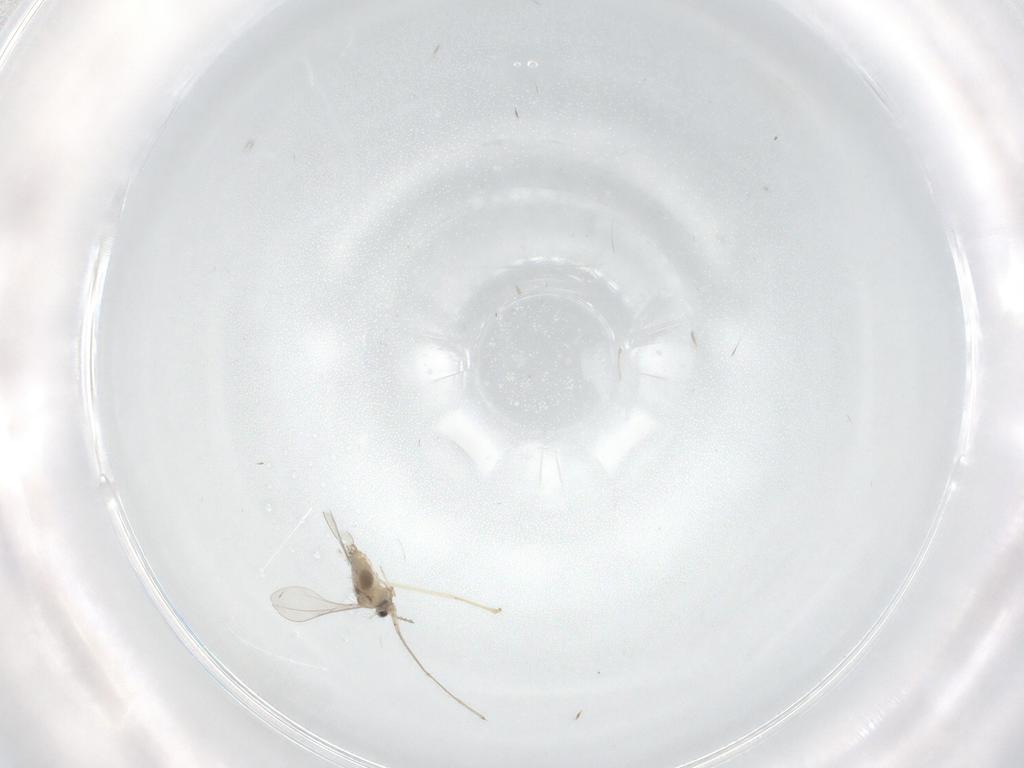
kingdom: Animalia
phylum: Arthropoda
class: Insecta
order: Diptera
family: Cecidomyiidae
